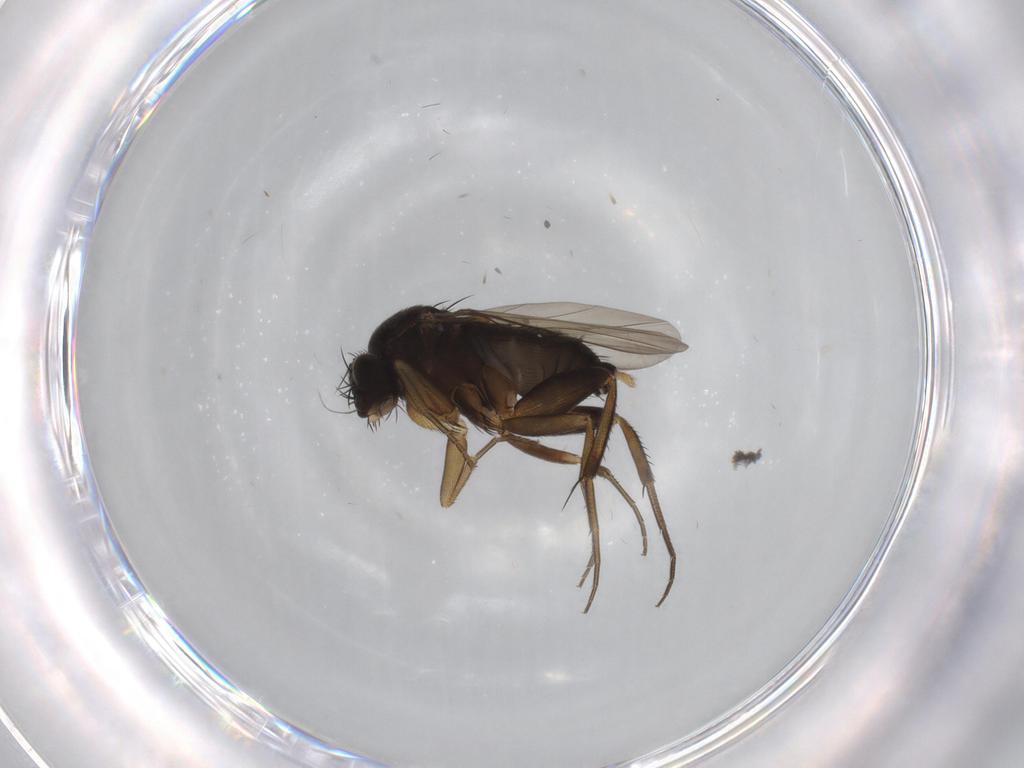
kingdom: Animalia
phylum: Arthropoda
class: Insecta
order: Diptera
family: Phoridae
